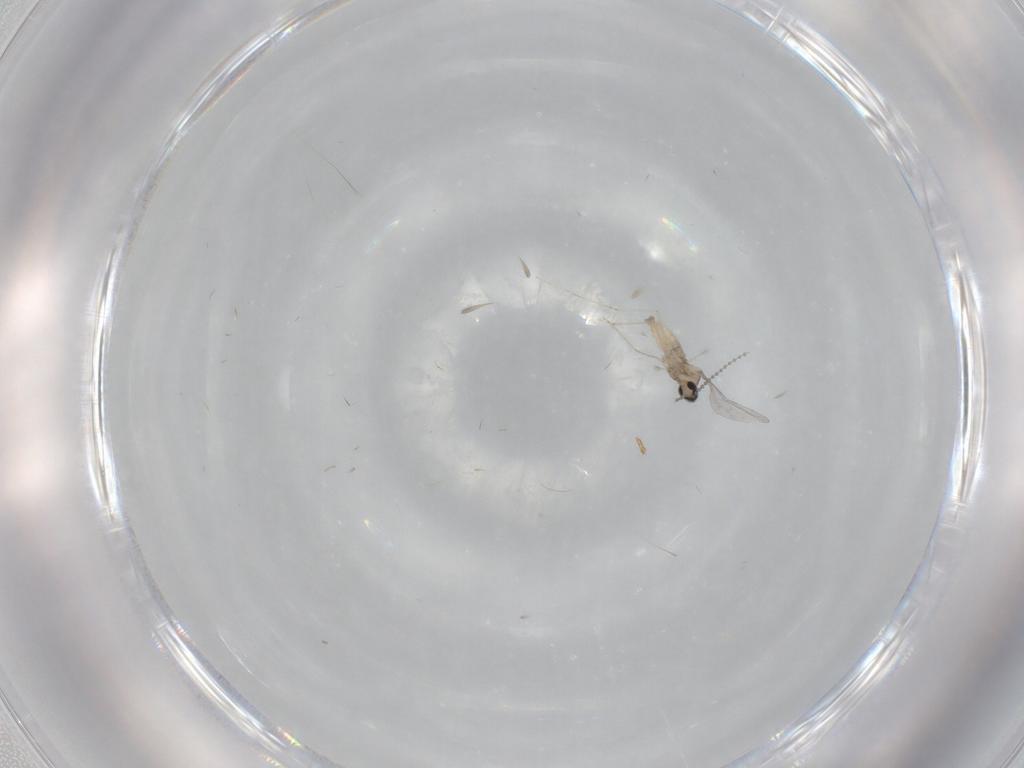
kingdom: Animalia
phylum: Arthropoda
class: Insecta
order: Diptera
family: Cecidomyiidae
